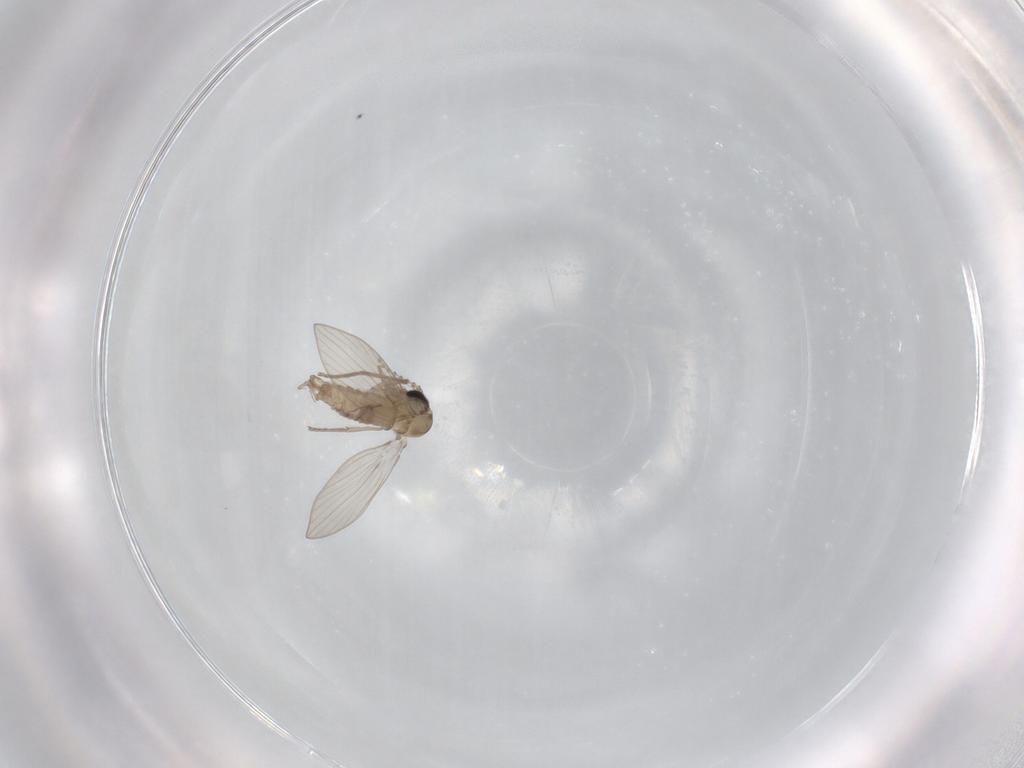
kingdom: Animalia
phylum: Arthropoda
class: Insecta
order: Diptera
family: Psychodidae
